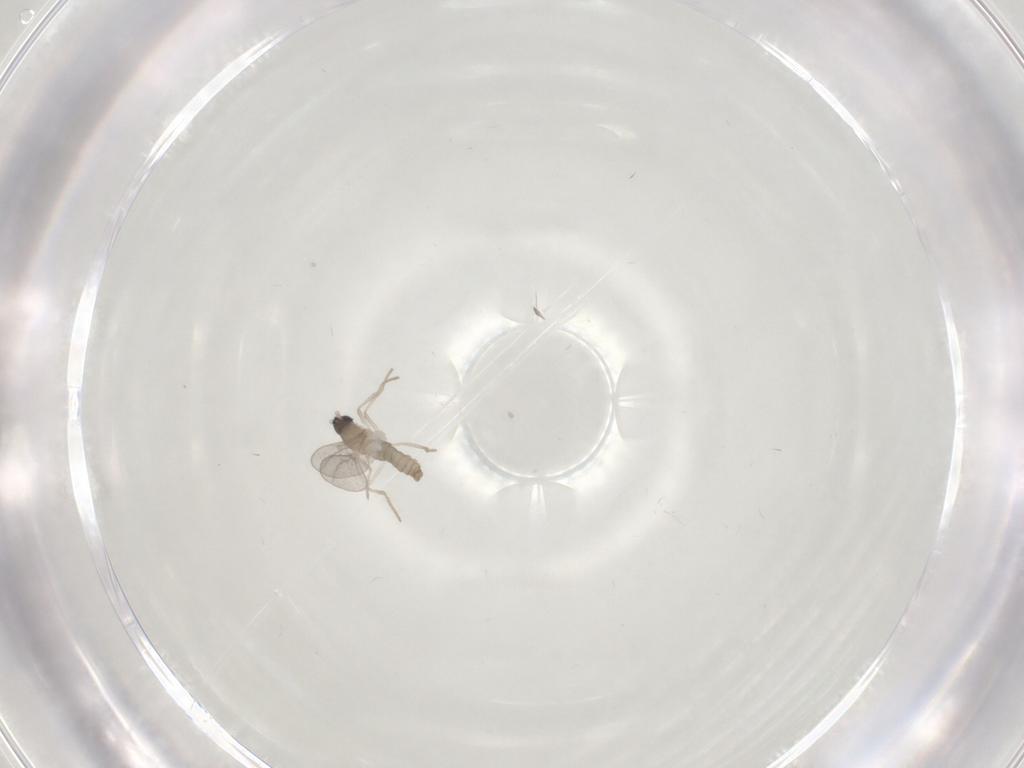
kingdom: Animalia
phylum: Arthropoda
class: Insecta
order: Diptera
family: Cecidomyiidae
